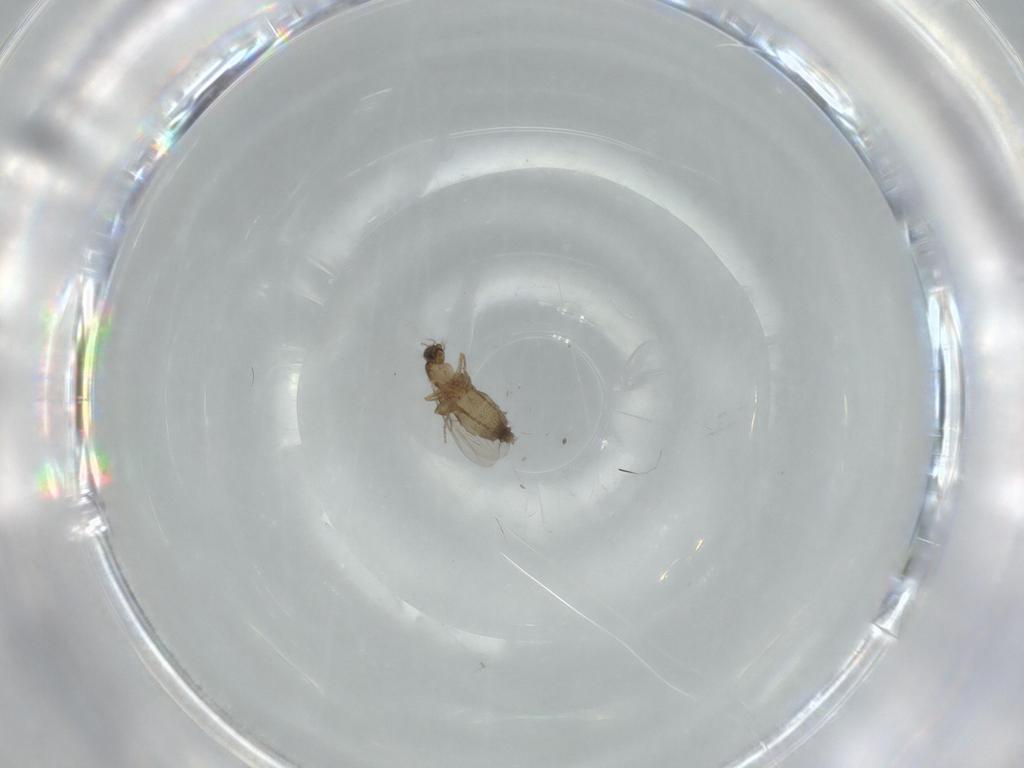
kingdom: Animalia
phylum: Arthropoda
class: Insecta
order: Diptera
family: Phoridae
